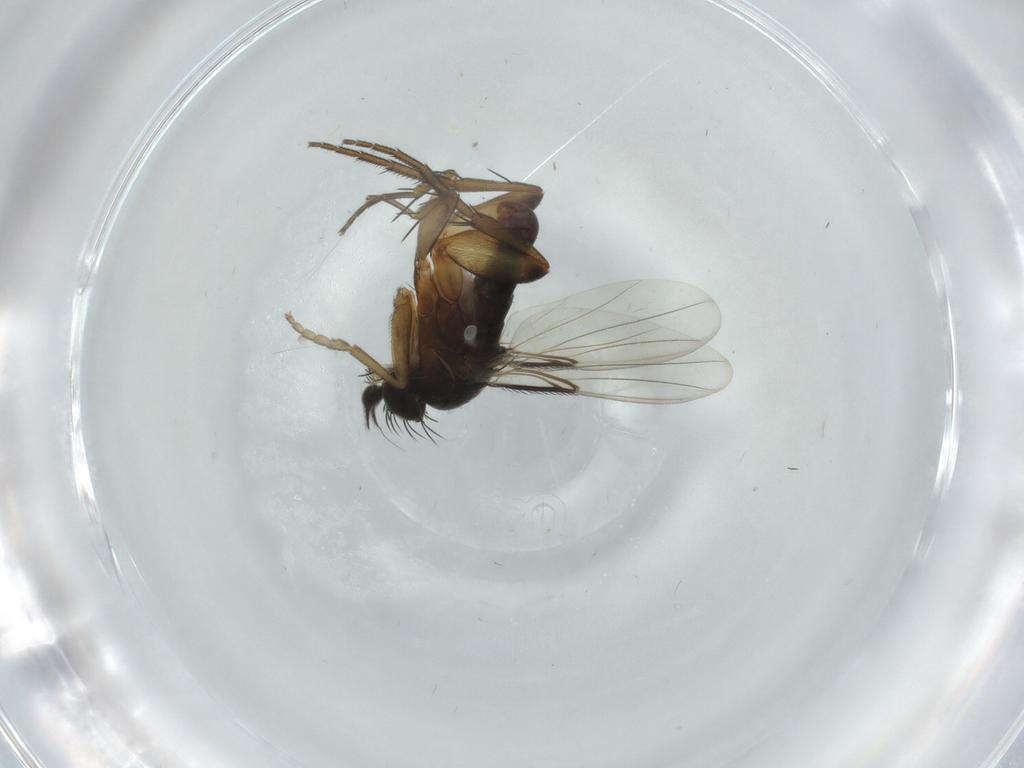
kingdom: Animalia
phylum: Arthropoda
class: Insecta
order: Diptera
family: Phoridae
